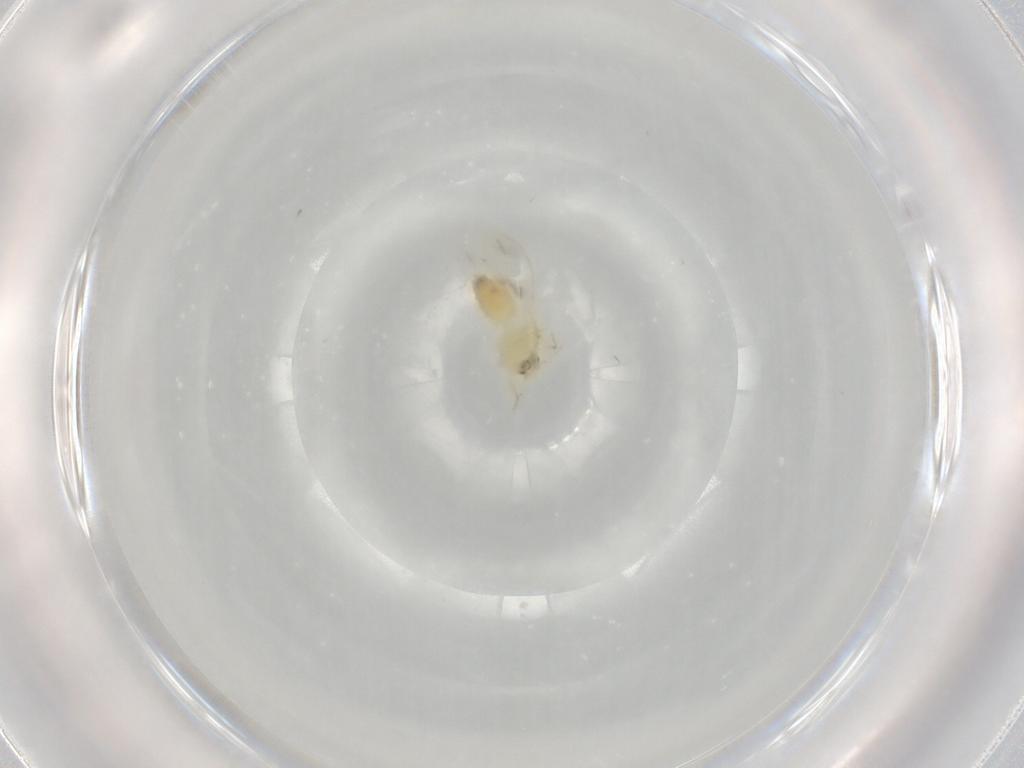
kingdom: Animalia
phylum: Arthropoda
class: Insecta
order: Hemiptera
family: Aleyrodidae
